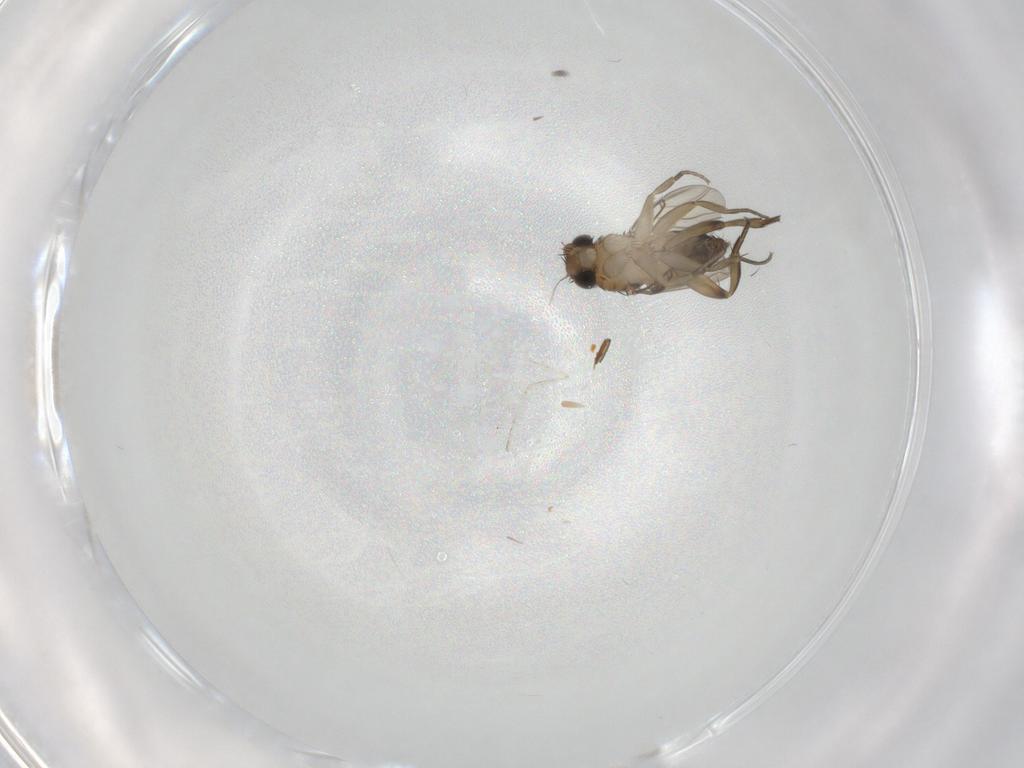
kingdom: Animalia
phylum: Arthropoda
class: Insecta
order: Diptera
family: Phoridae
